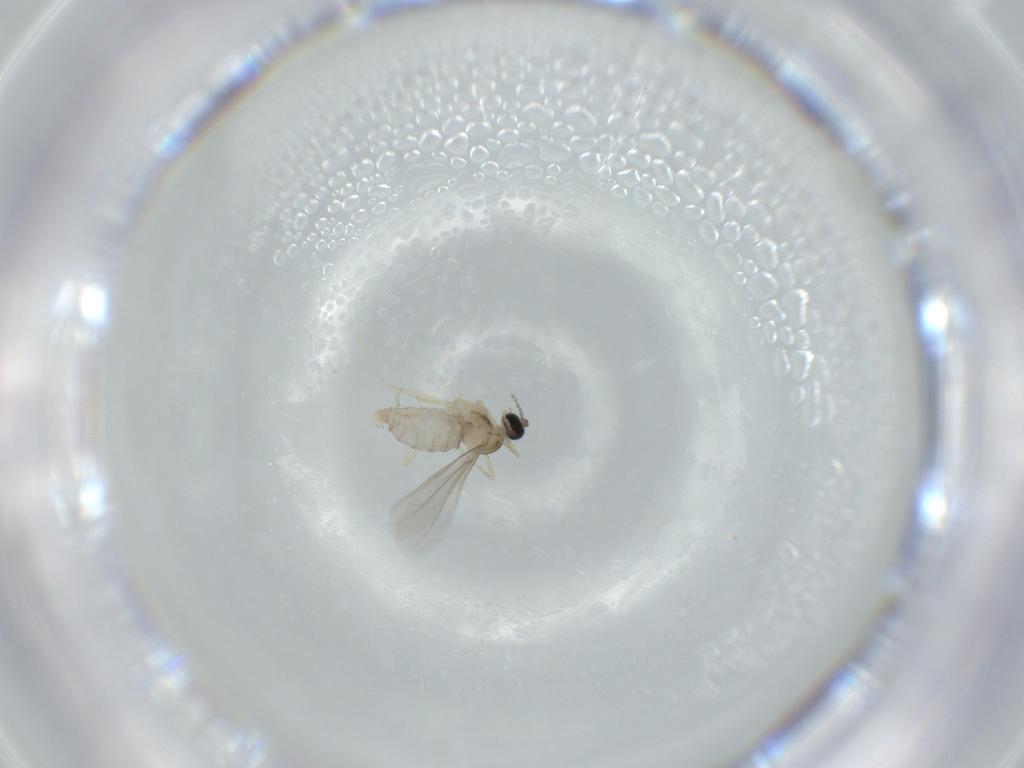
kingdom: Animalia
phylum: Arthropoda
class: Insecta
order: Diptera
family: Cecidomyiidae
